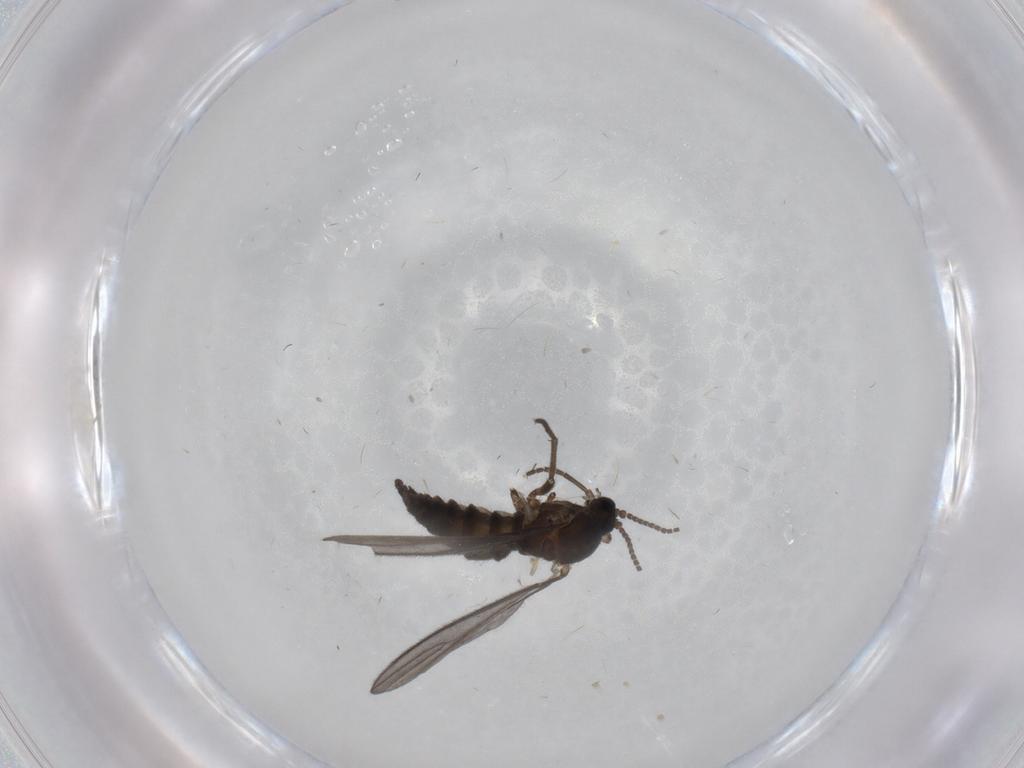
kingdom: Animalia
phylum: Arthropoda
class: Insecta
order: Diptera
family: Sciaridae
